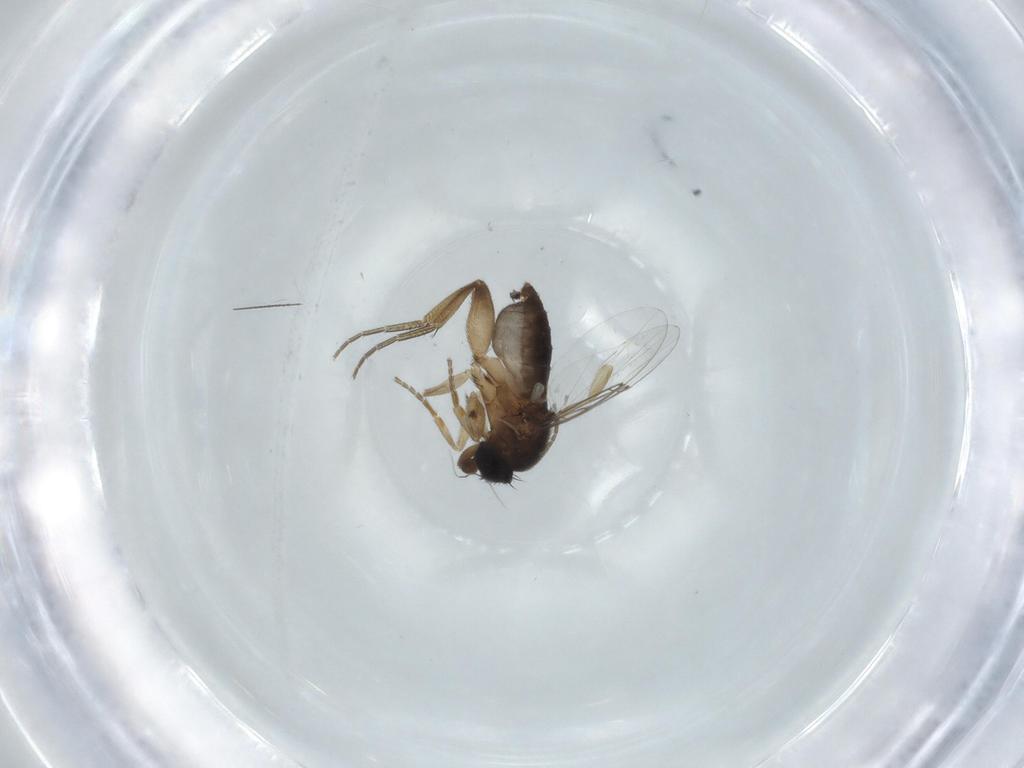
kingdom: Animalia
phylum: Arthropoda
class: Insecta
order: Diptera
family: Phoridae
